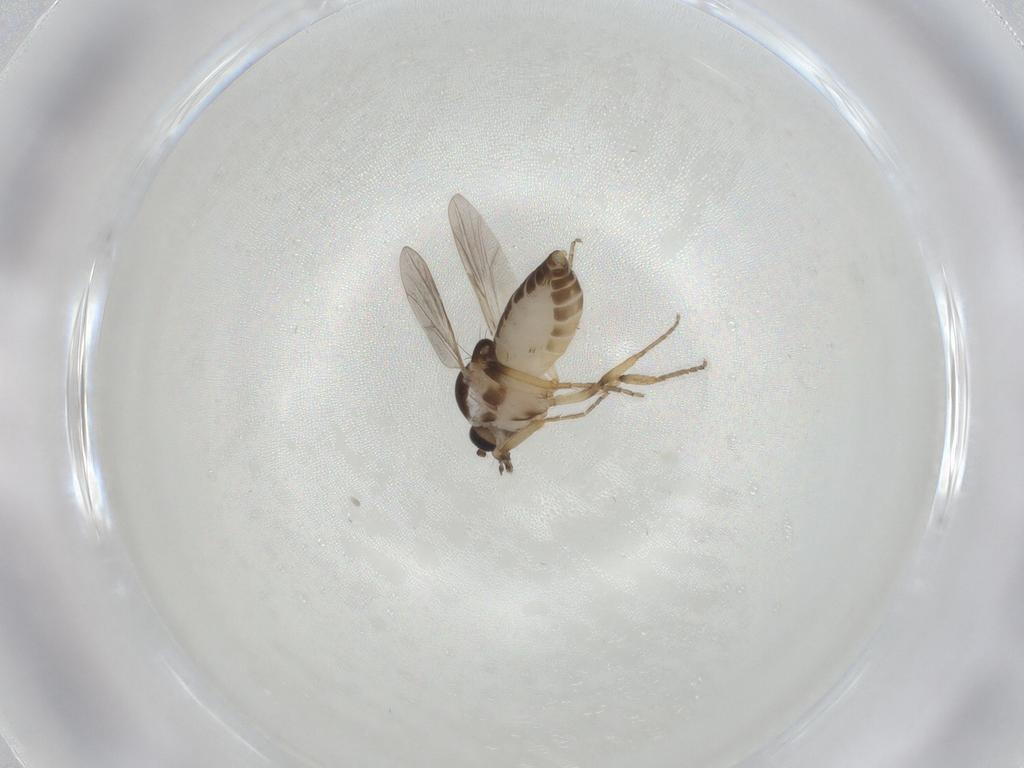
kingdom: Animalia
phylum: Arthropoda
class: Insecta
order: Diptera
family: Ceratopogonidae
